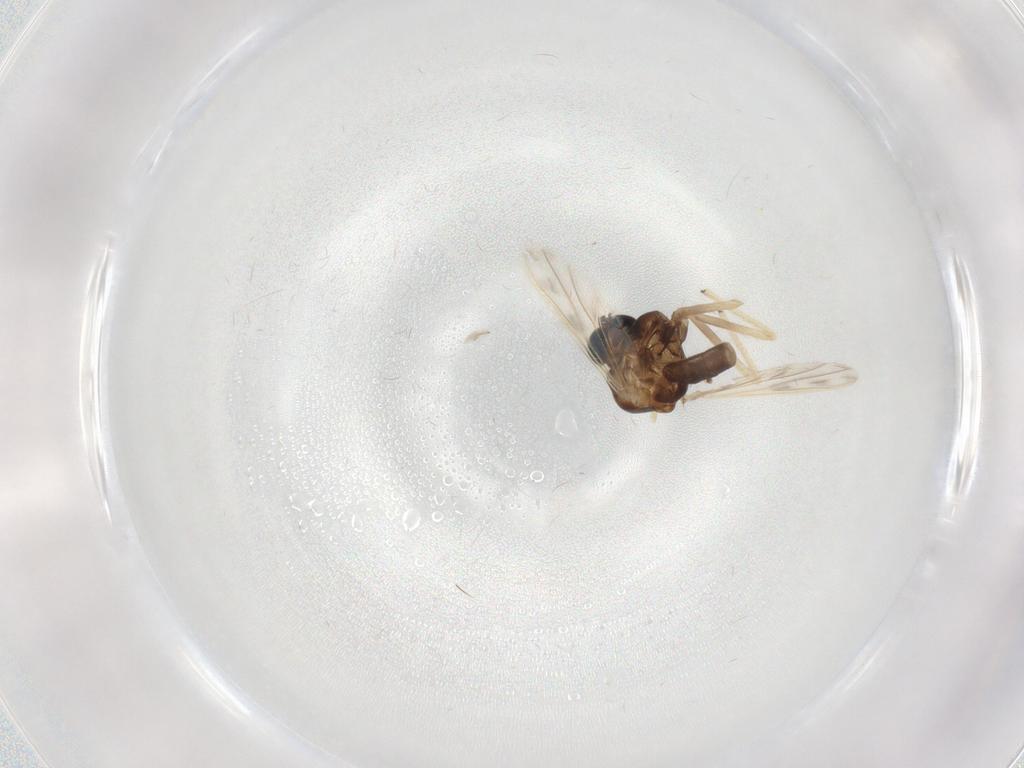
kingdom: Animalia
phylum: Arthropoda
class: Insecta
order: Diptera
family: Chironomidae
